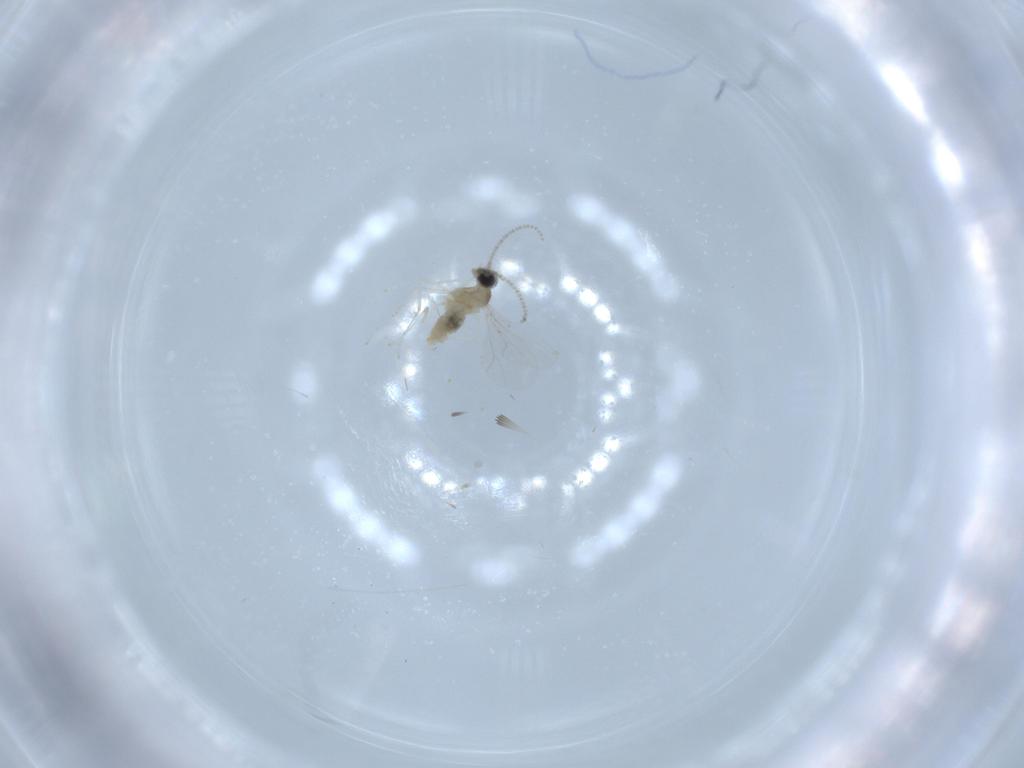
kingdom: Animalia
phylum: Arthropoda
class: Insecta
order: Diptera
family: Cecidomyiidae
